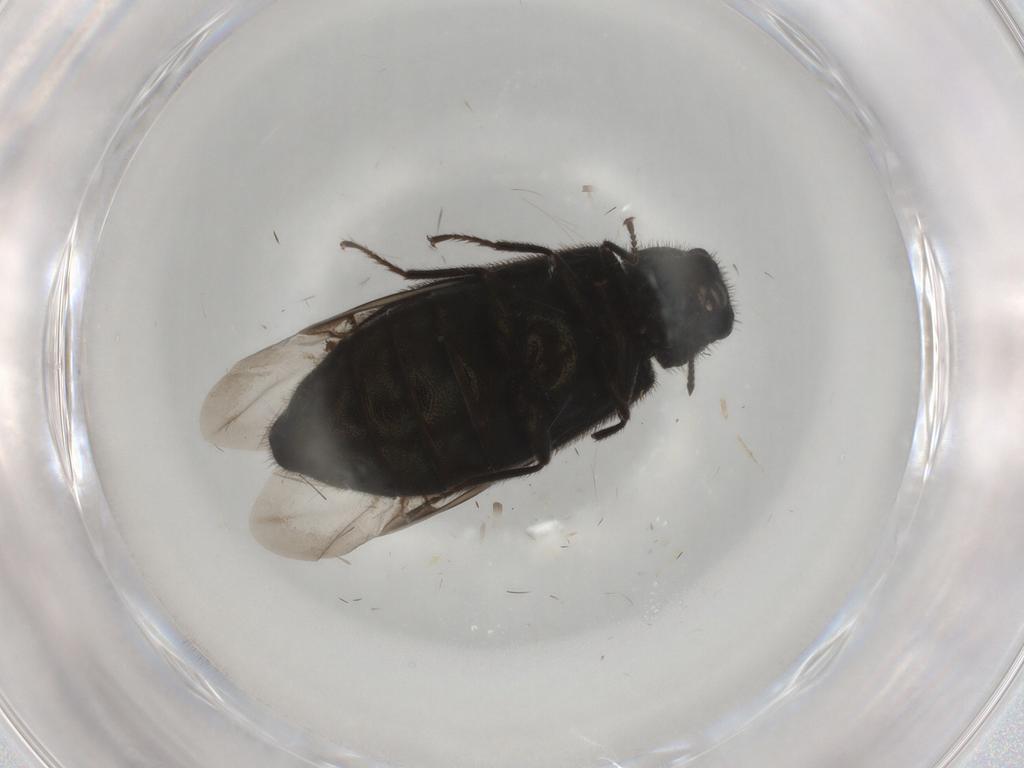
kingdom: Animalia
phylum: Arthropoda
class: Insecta
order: Coleoptera
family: Melyridae
